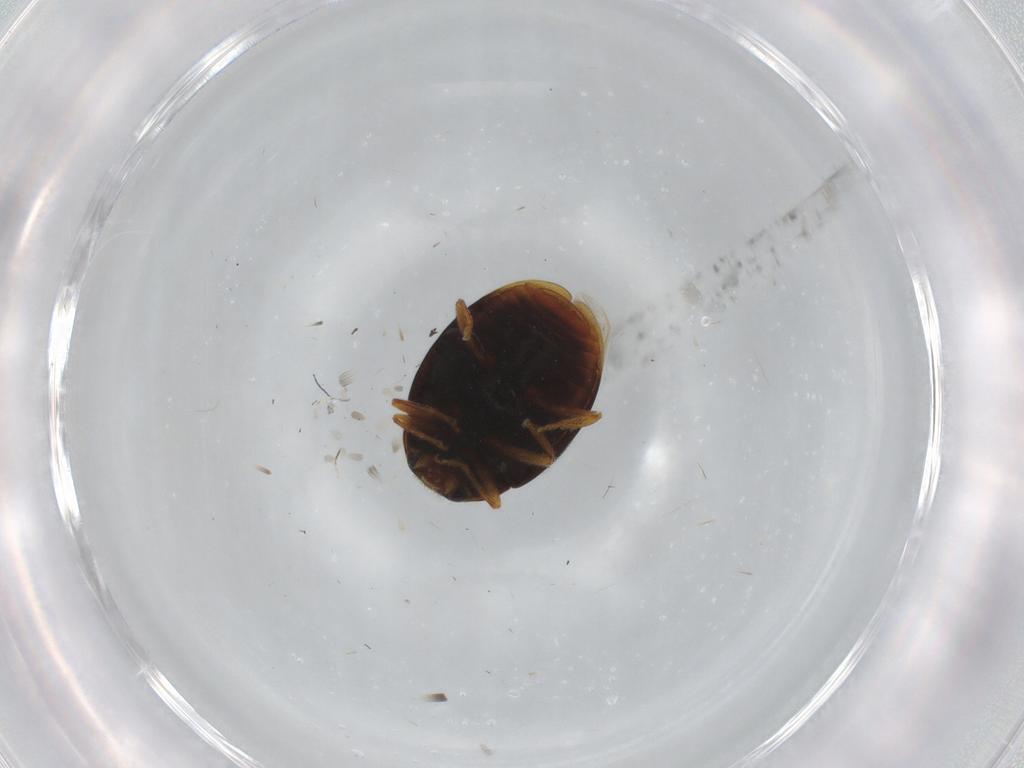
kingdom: Animalia
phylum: Arthropoda
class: Insecta
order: Coleoptera
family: Coccinellidae
